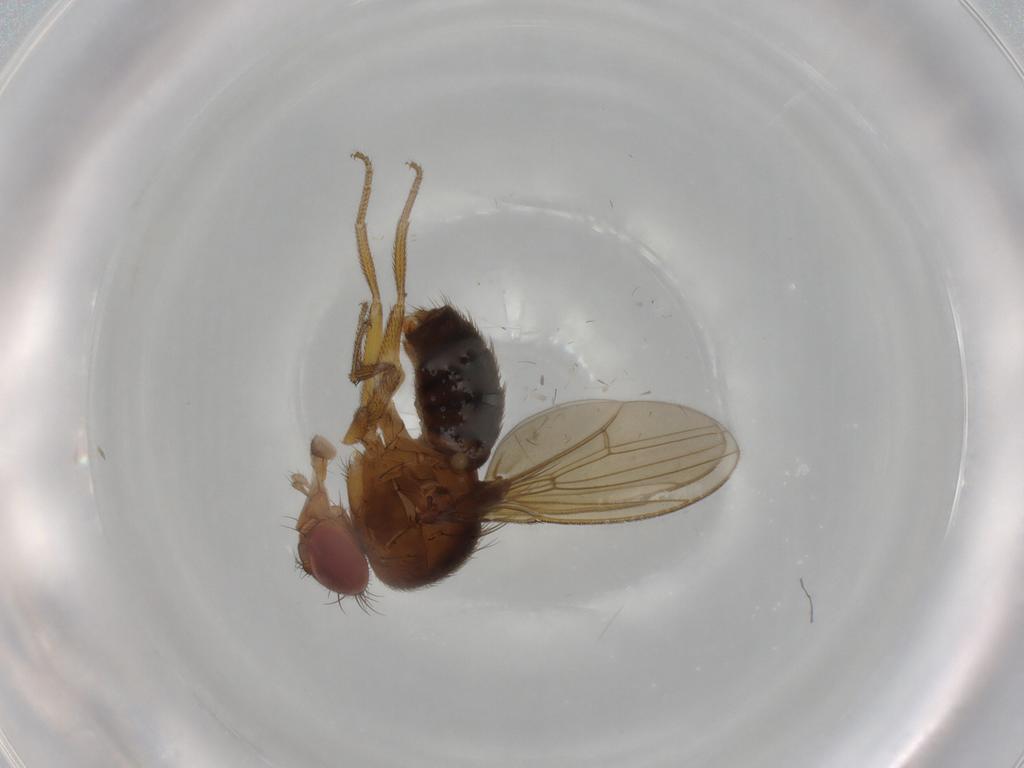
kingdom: Animalia
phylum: Arthropoda
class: Insecta
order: Diptera
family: Drosophilidae
